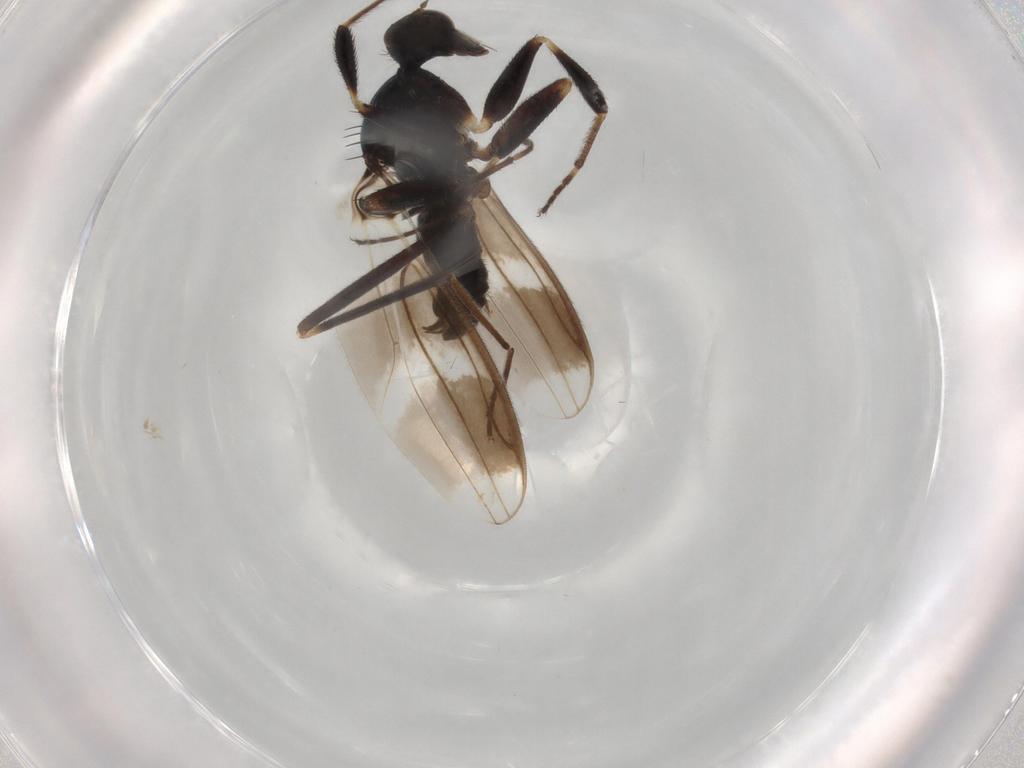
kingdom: Animalia
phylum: Arthropoda
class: Insecta
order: Diptera
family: Hybotidae
